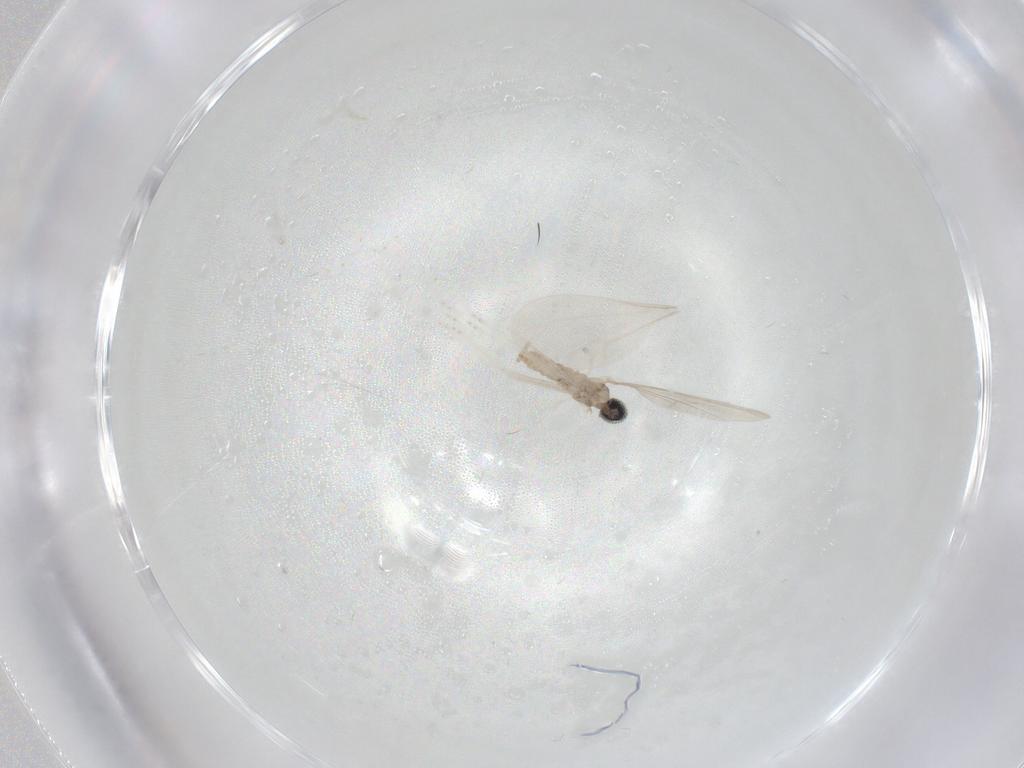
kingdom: Animalia
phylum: Arthropoda
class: Insecta
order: Diptera
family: Cecidomyiidae
